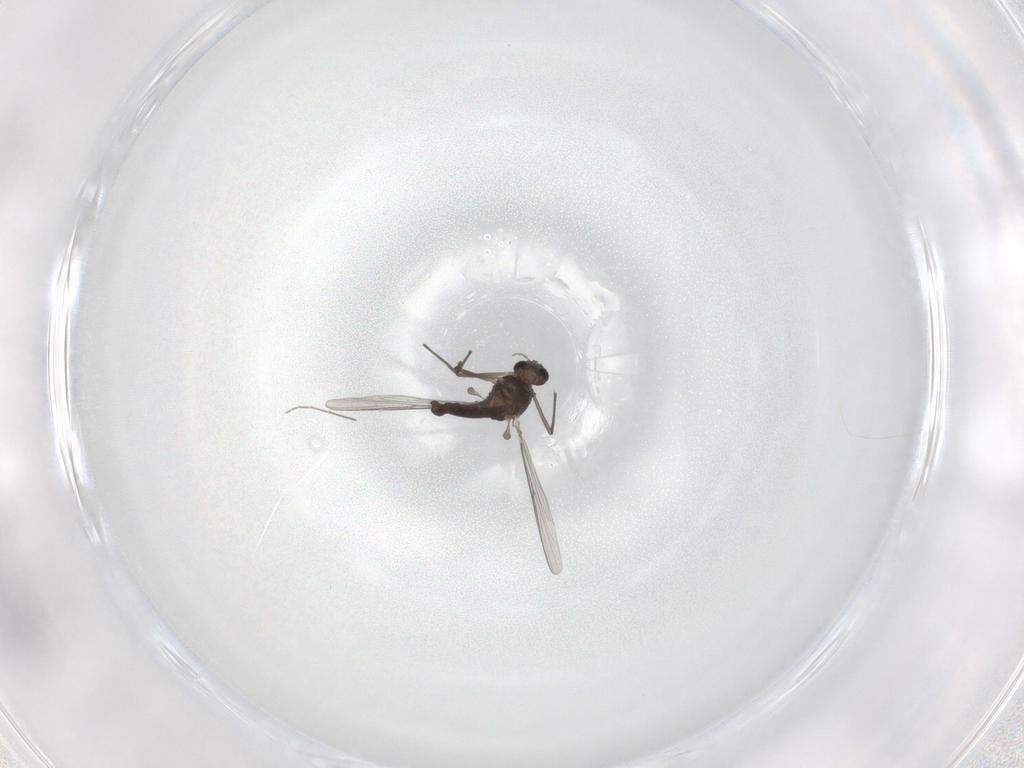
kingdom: Animalia
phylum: Arthropoda
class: Insecta
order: Diptera
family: Chironomidae
